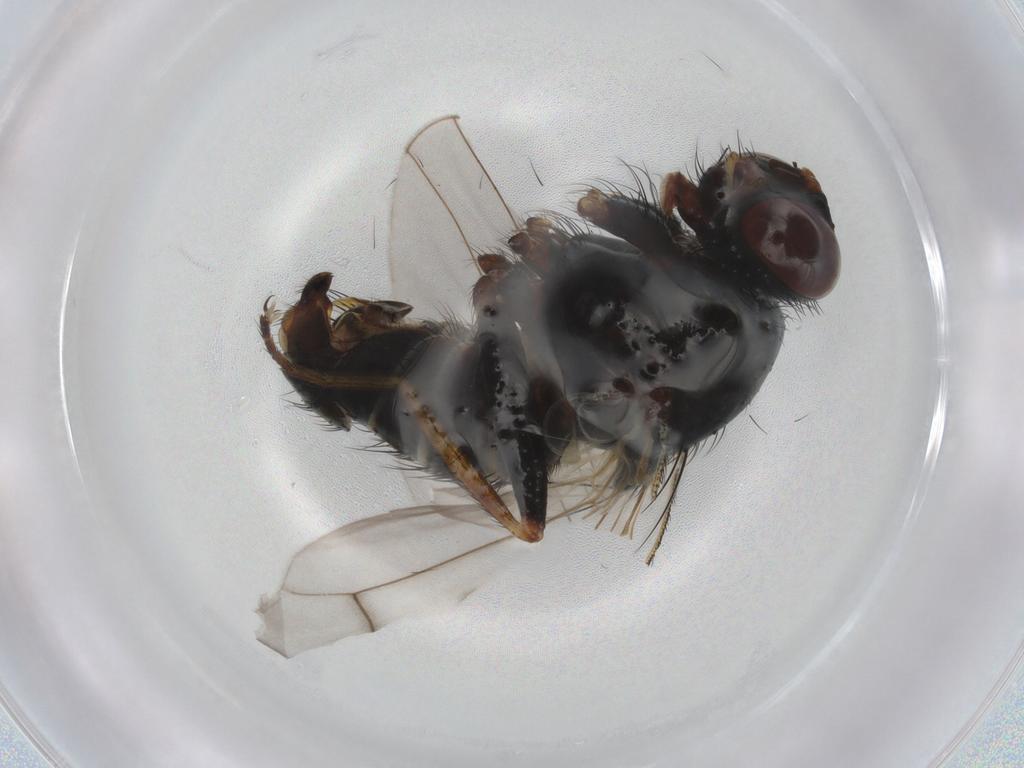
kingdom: Animalia
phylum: Arthropoda
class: Insecta
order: Diptera
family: Muscidae
